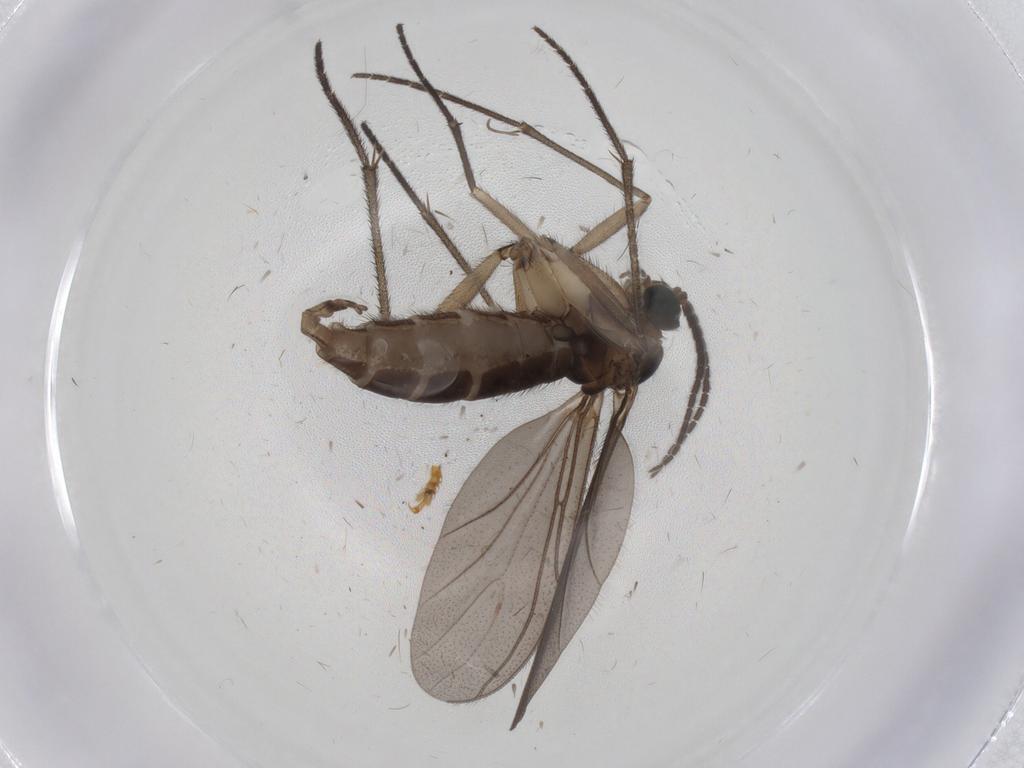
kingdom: Animalia
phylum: Arthropoda
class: Insecta
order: Diptera
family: Sciaridae
